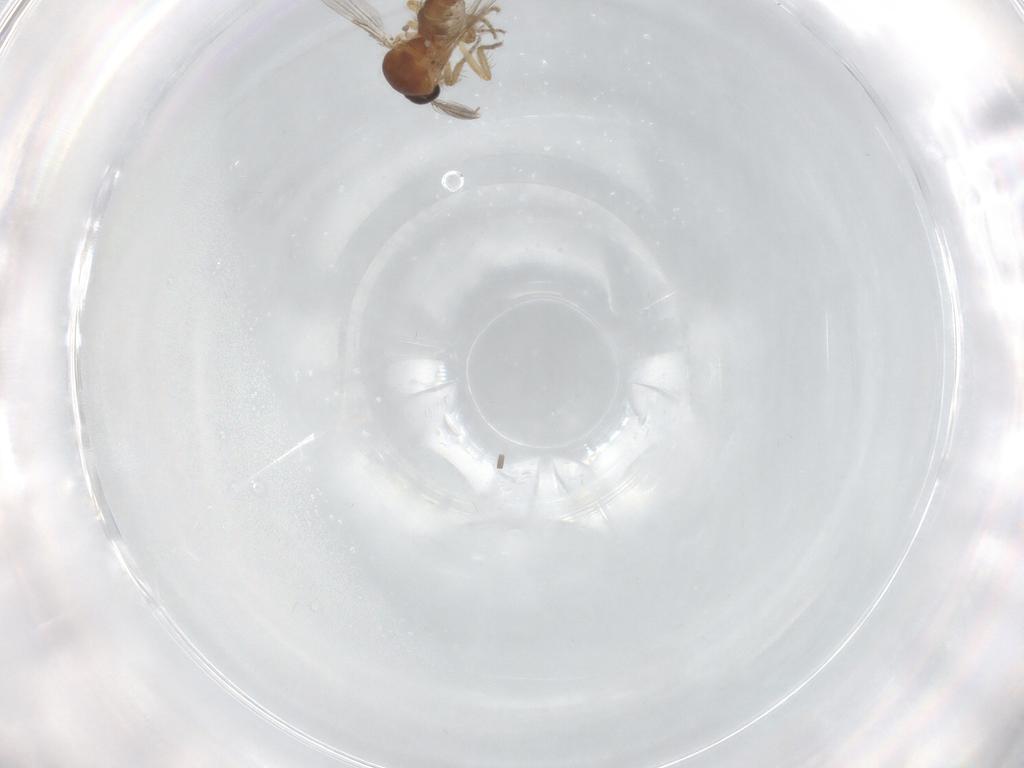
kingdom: Animalia
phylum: Arthropoda
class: Insecta
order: Diptera
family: Ceratopogonidae
